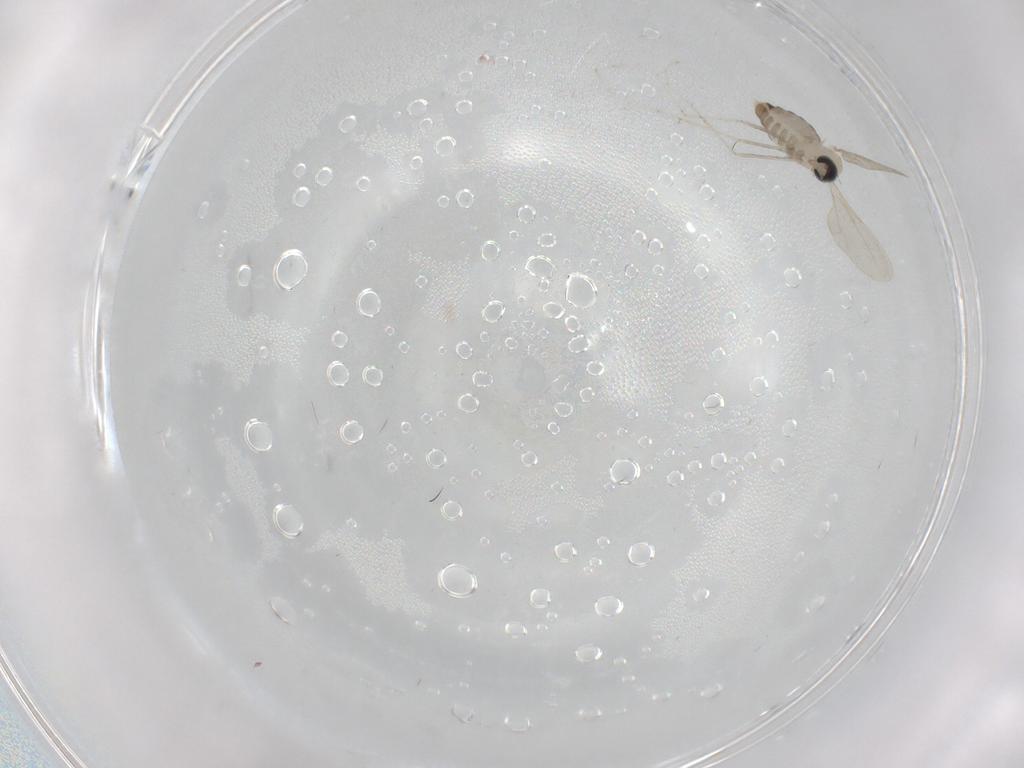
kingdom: Animalia
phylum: Arthropoda
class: Insecta
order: Diptera
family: Cecidomyiidae
